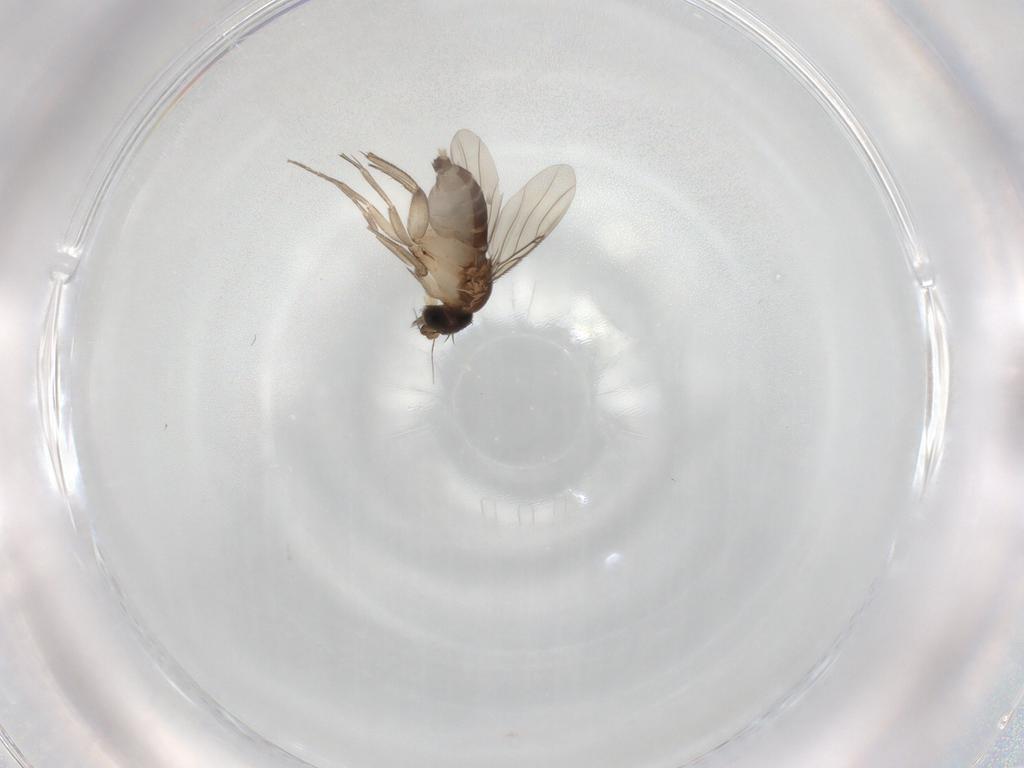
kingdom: Animalia
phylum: Arthropoda
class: Insecta
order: Diptera
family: Phoridae
